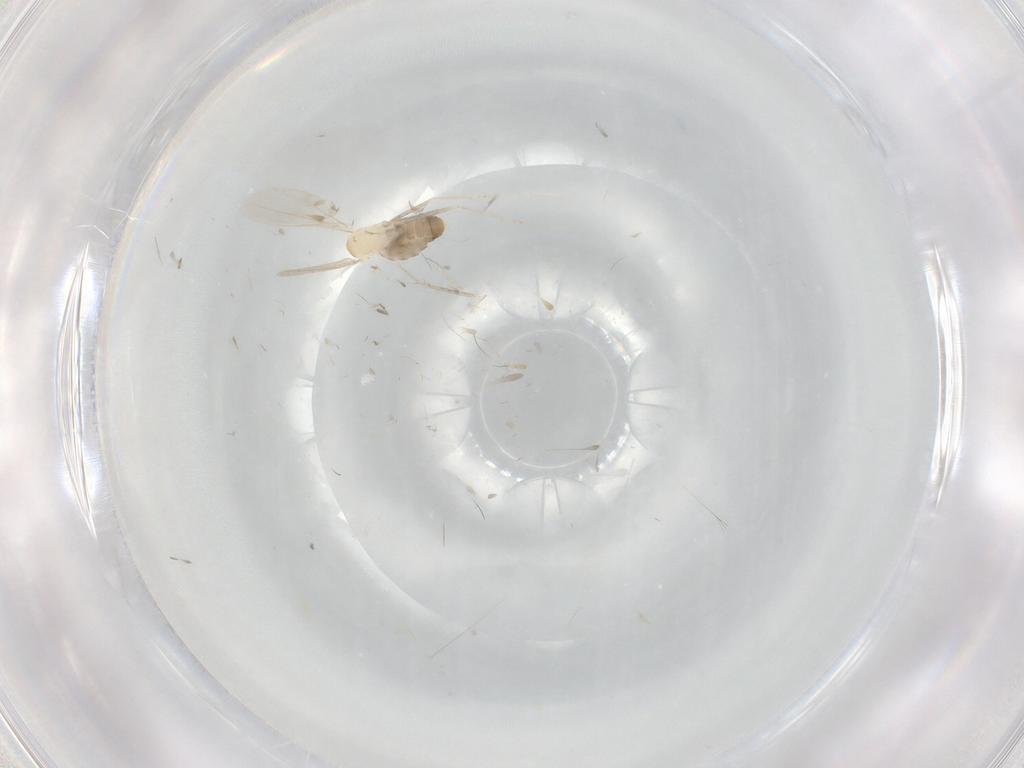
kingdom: Animalia
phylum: Arthropoda
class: Insecta
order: Diptera
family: Cecidomyiidae
